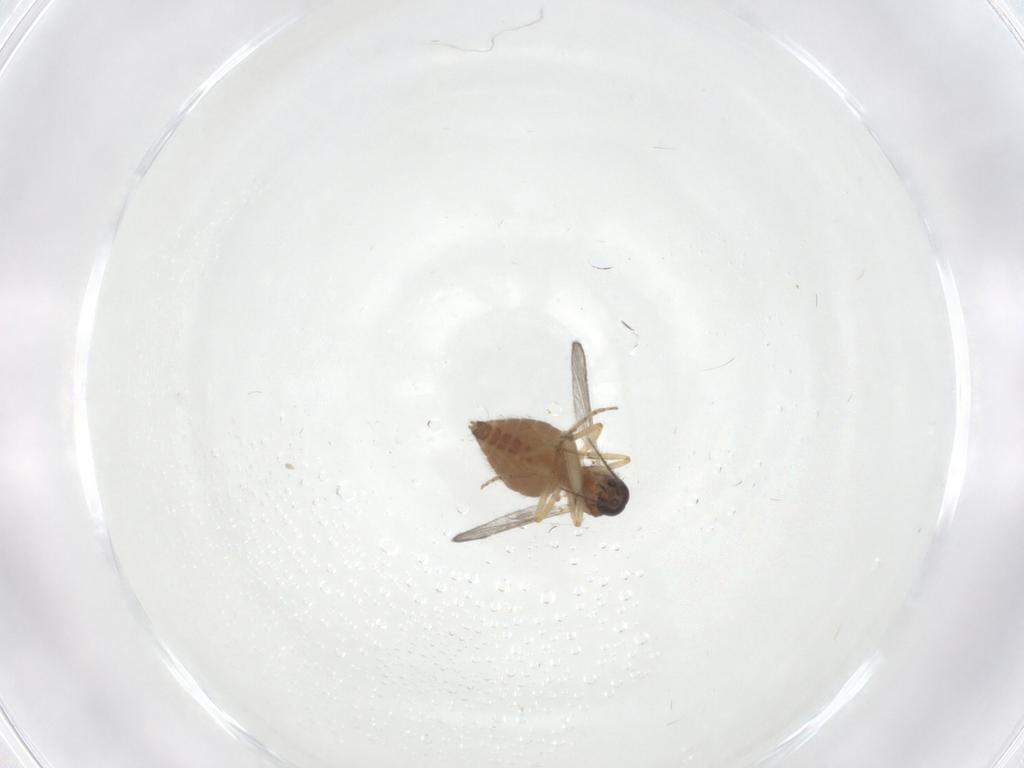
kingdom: Animalia
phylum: Arthropoda
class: Insecta
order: Diptera
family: Ceratopogonidae
